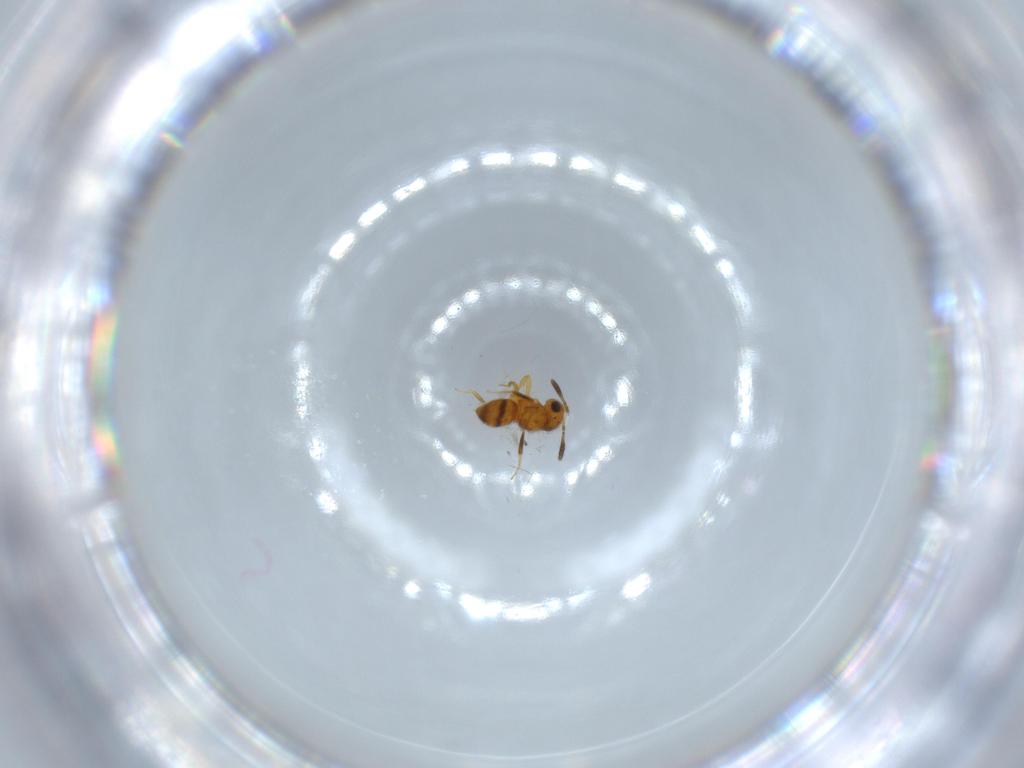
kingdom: Animalia
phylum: Arthropoda
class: Insecta
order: Hymenoptera
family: Scelionidae
